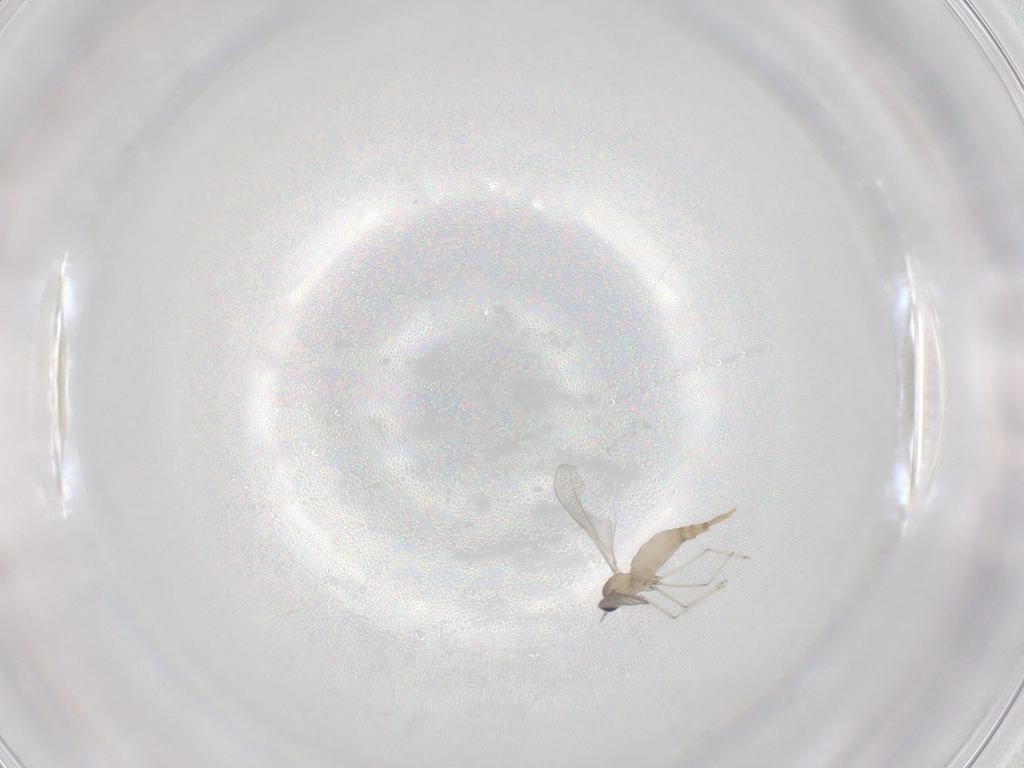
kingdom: Animalia
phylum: Arthropoda
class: Insecta
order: Diptera
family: Cecidomyiidae
